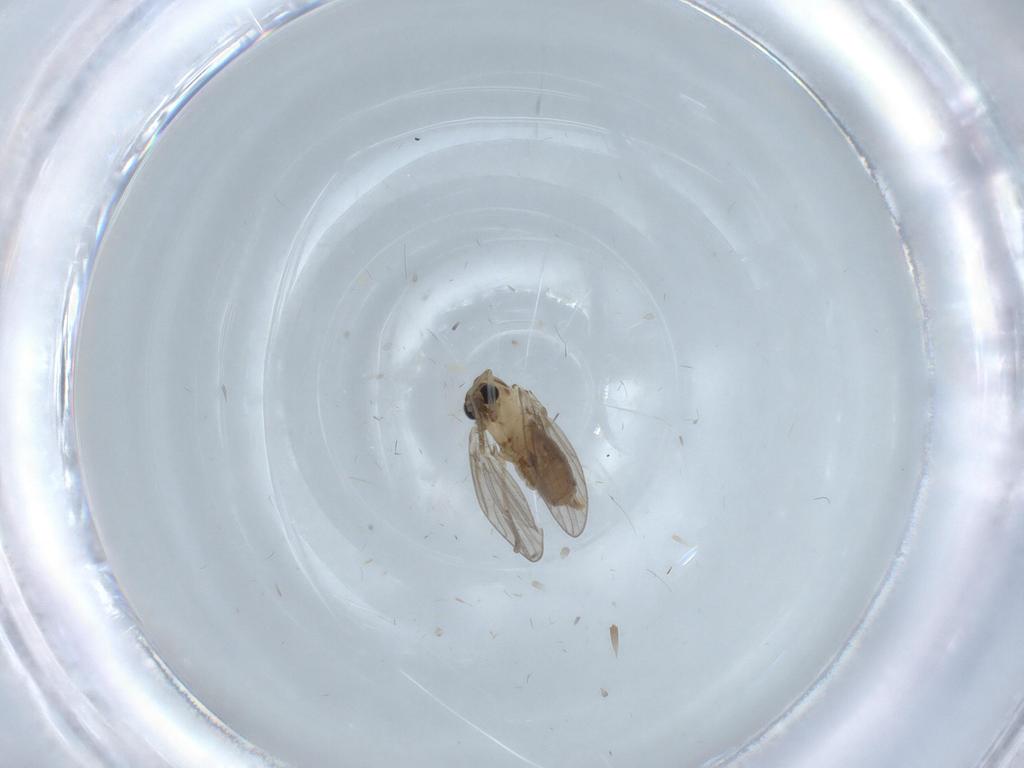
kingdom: Animalia
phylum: Arthropoda
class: Insecta
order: Diptera
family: Psychodidae
